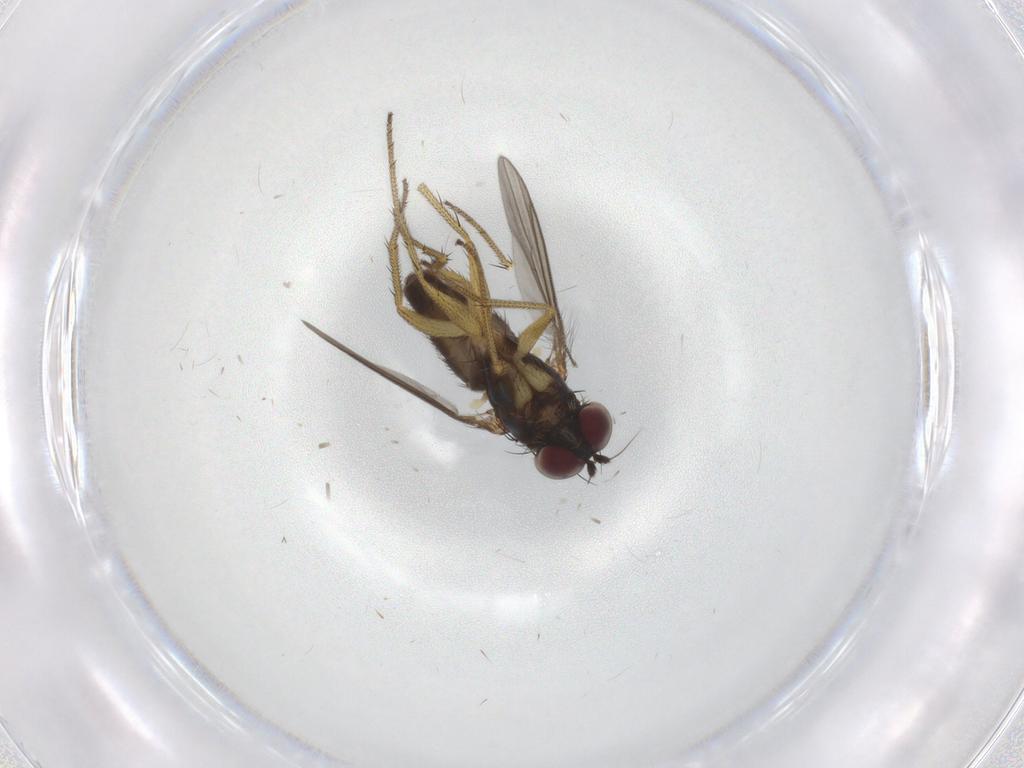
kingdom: Animalia
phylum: Arthropoda
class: Insecta
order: Diptera
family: Dolichopodidae
